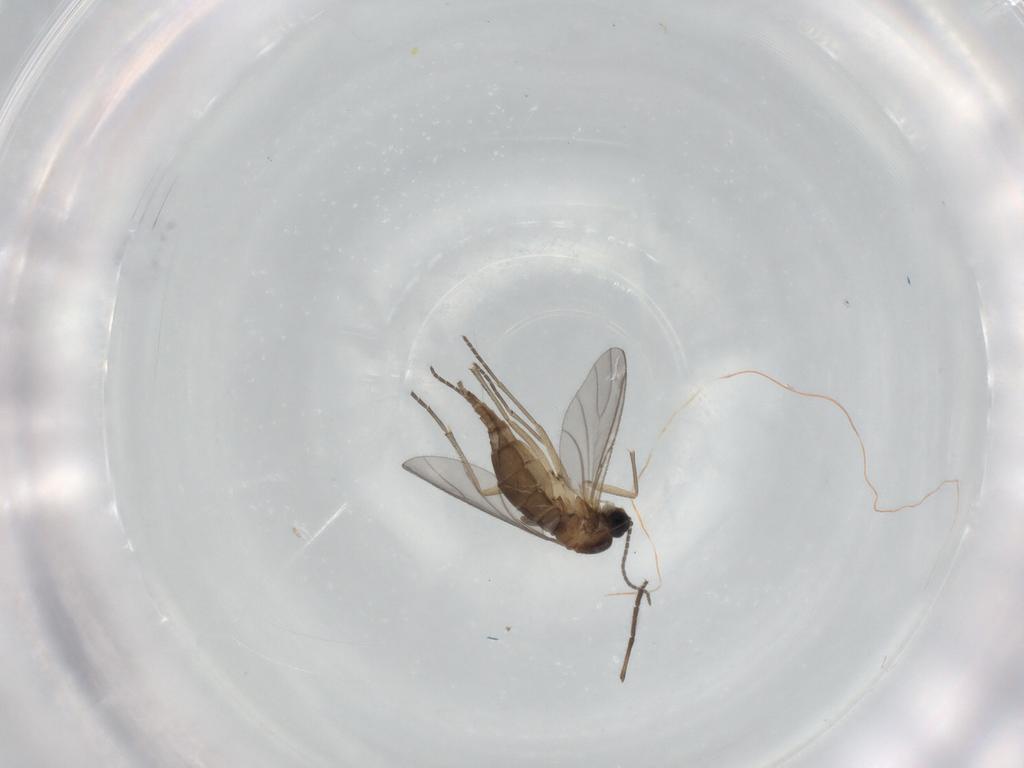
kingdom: Animalia
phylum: Arthropoda
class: Insecta
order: Diptera
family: Sciaridae
